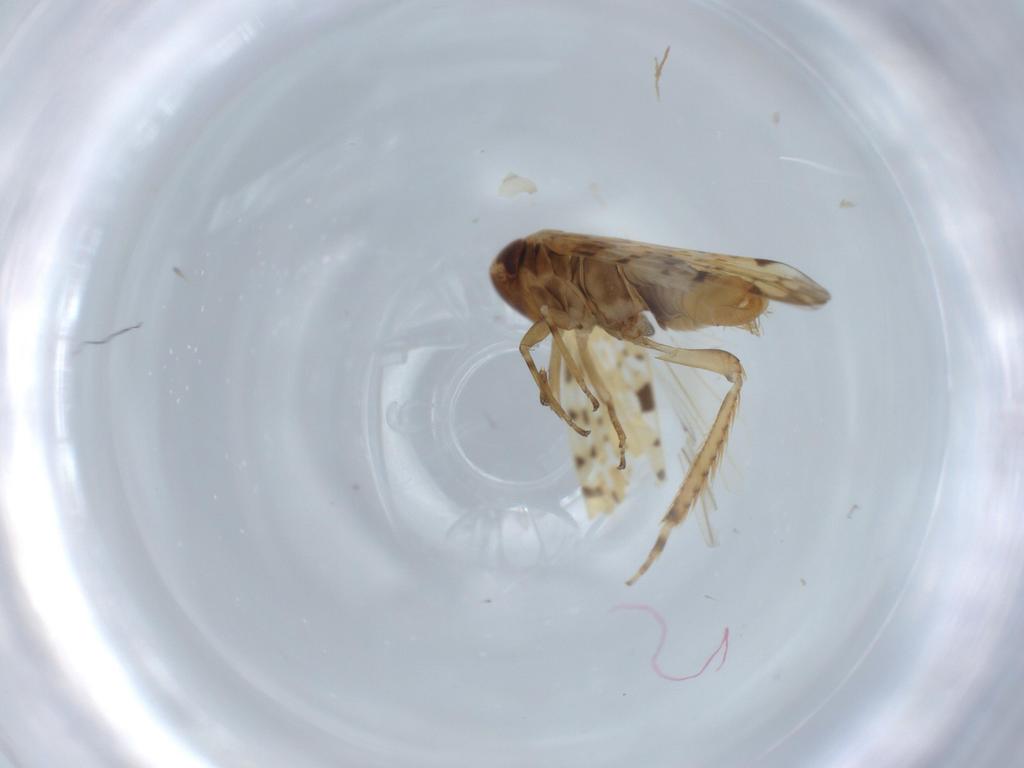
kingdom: Animalia
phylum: Arthropoda
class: Insecta
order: Hemiptera
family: Cicadellidae
